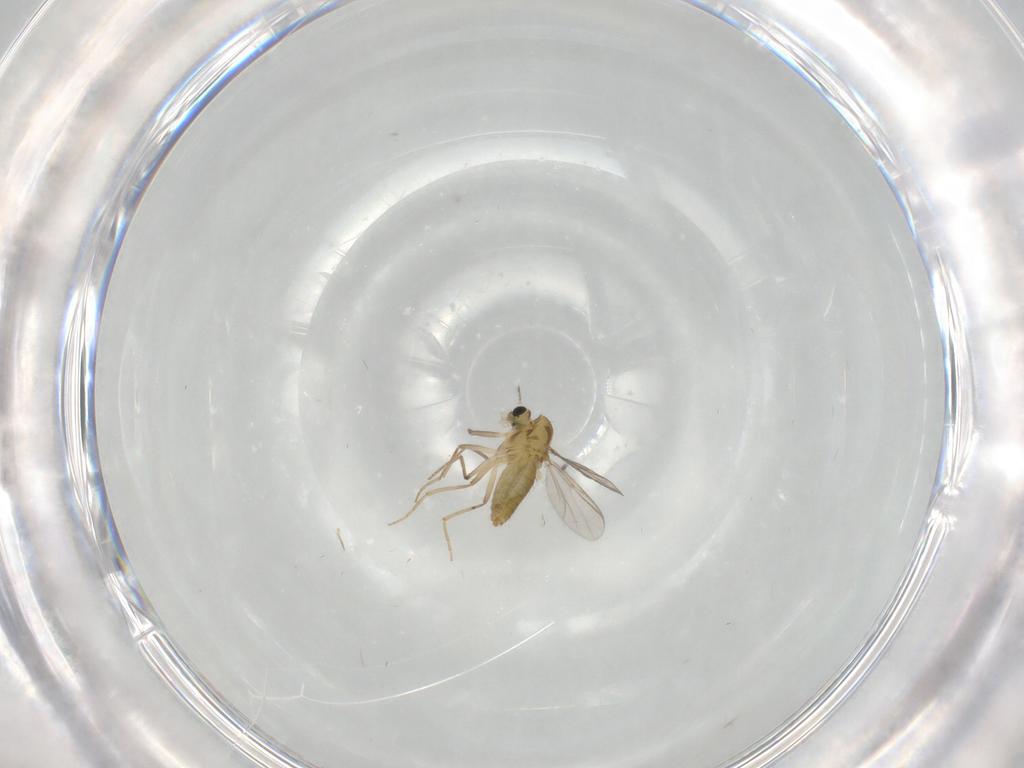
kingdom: Animalia
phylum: Arthropoda
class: Insecta
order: Diptera
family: Chironomidae
